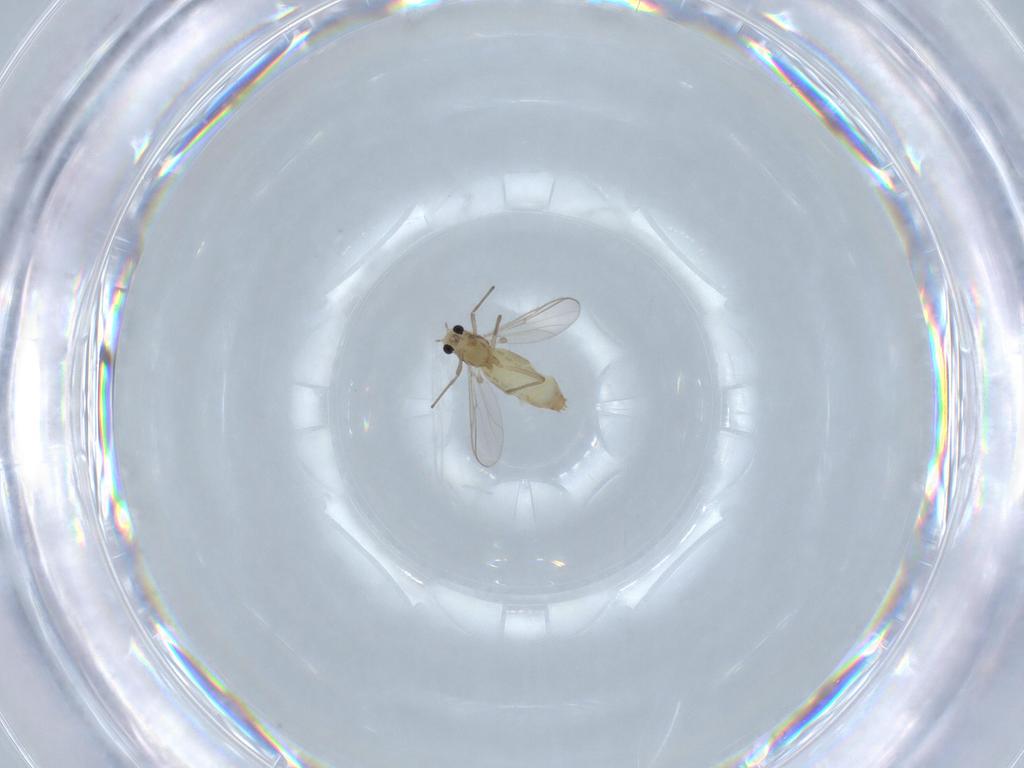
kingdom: Animalia
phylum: Arthropoda
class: Insecta
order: Diptera
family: Chironomidae
